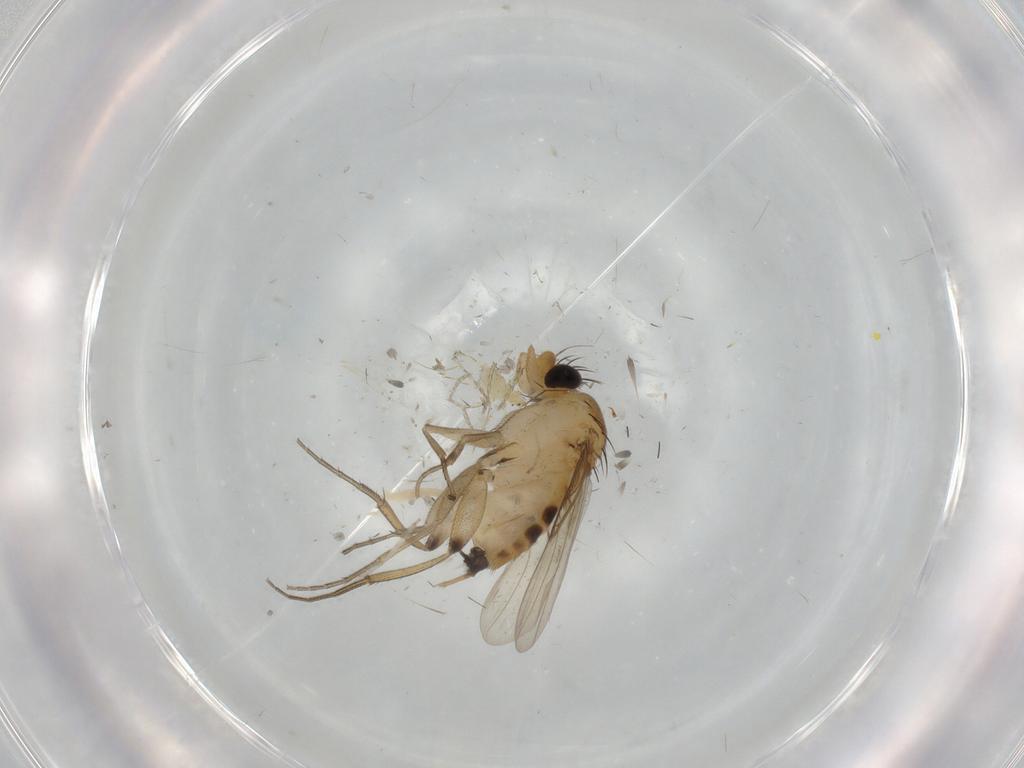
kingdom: Animalia
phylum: Arthropoda
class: Insecta
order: Diptera
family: Phoridae
